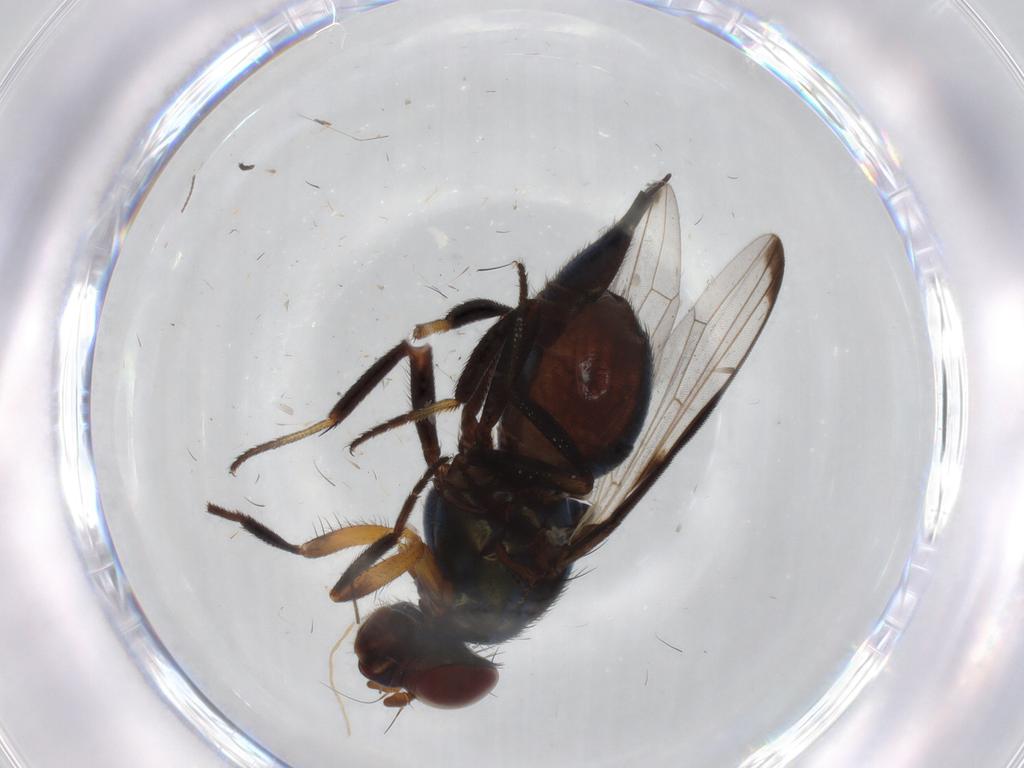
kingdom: Animalia
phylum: Arthropoda
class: Insecta
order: Diptera
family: Ulidiidae
